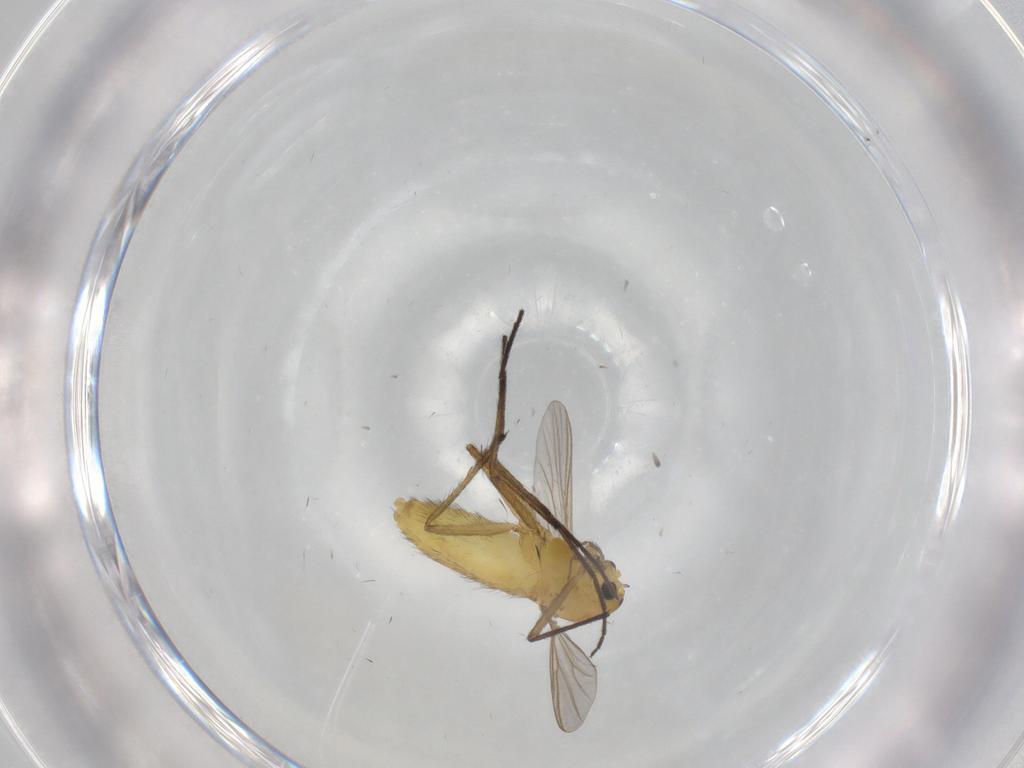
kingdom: Animalia
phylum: Arthropoda
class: Insecta
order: Diptera
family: Chironomidae
